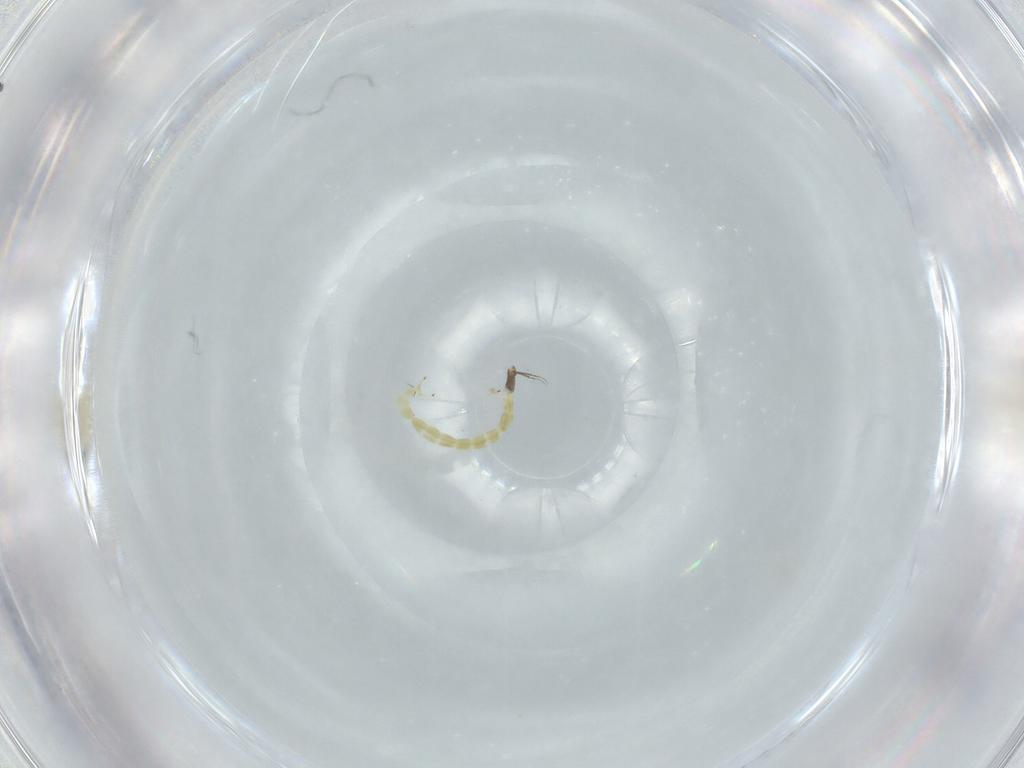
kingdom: Animalia
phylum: Arthropoda
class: Insecta
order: Diptera
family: Chironomidae
